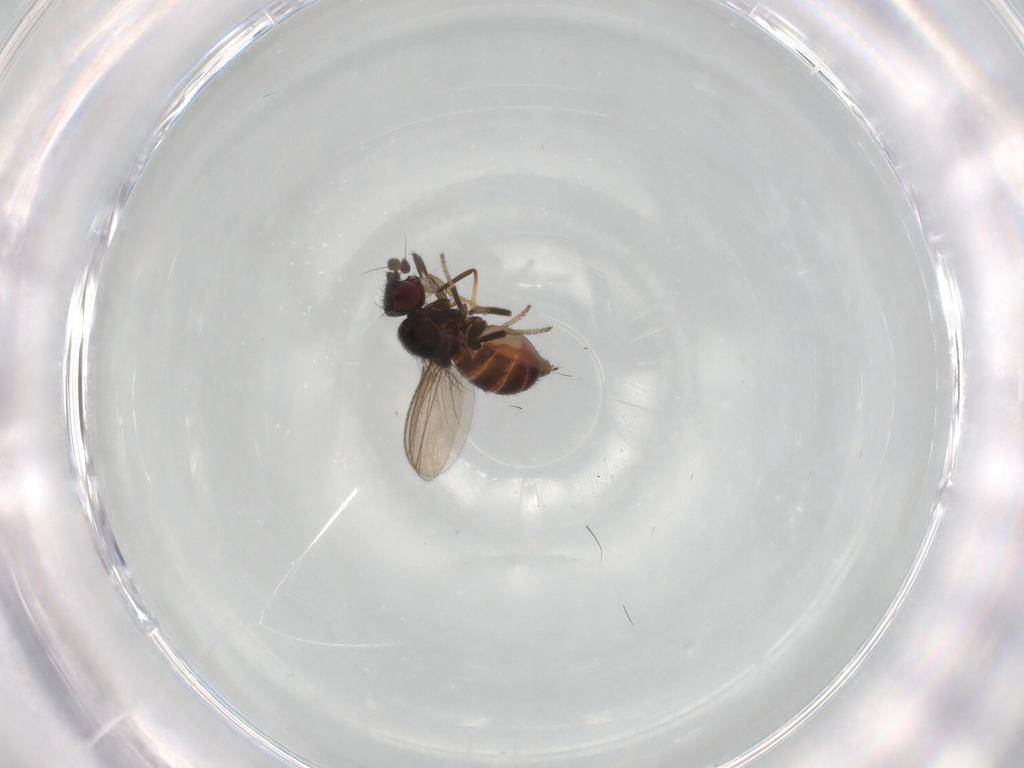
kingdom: Animalia
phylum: Arthropoda
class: Insecta
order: Diptera
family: Milichiidae
